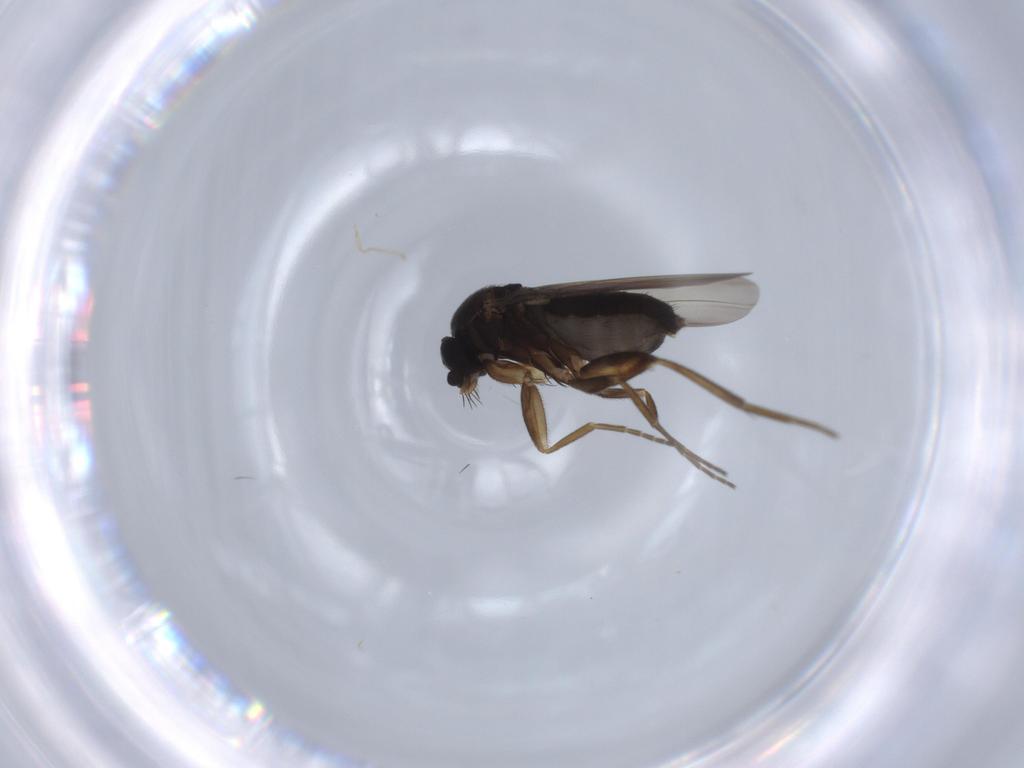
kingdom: Animalia
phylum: Arthropoda
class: Insecta
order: Diptera
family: Phoridae
